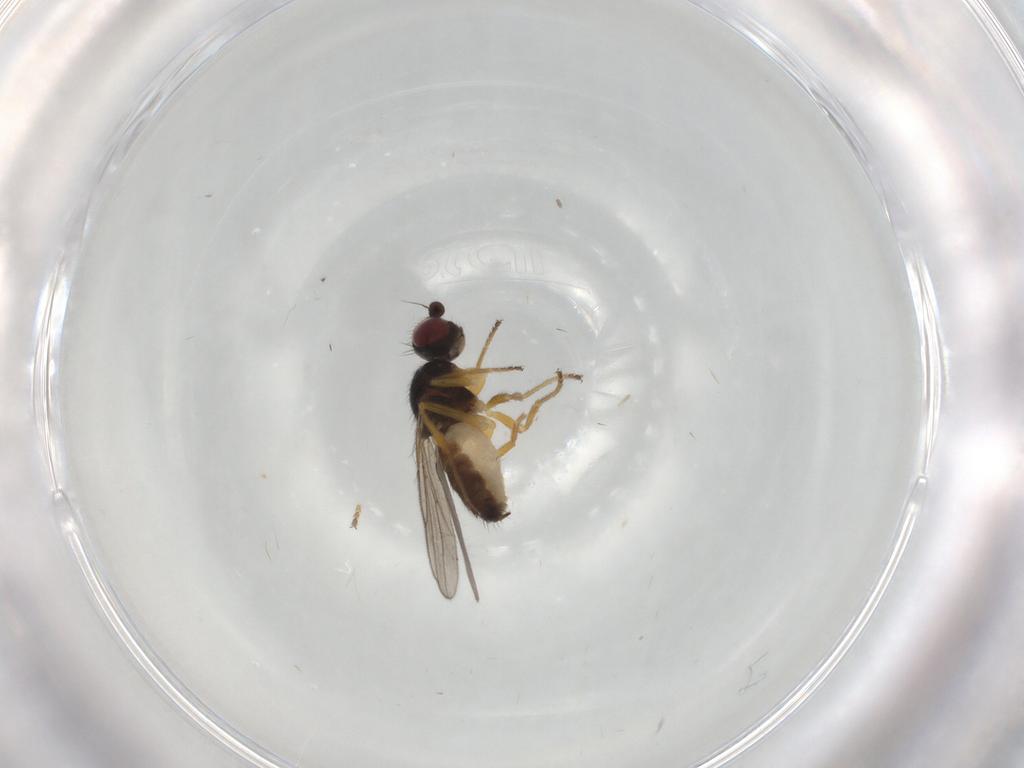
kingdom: Animalia
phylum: Arthropoda
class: Insecta
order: Diptera
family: Chloropidae
